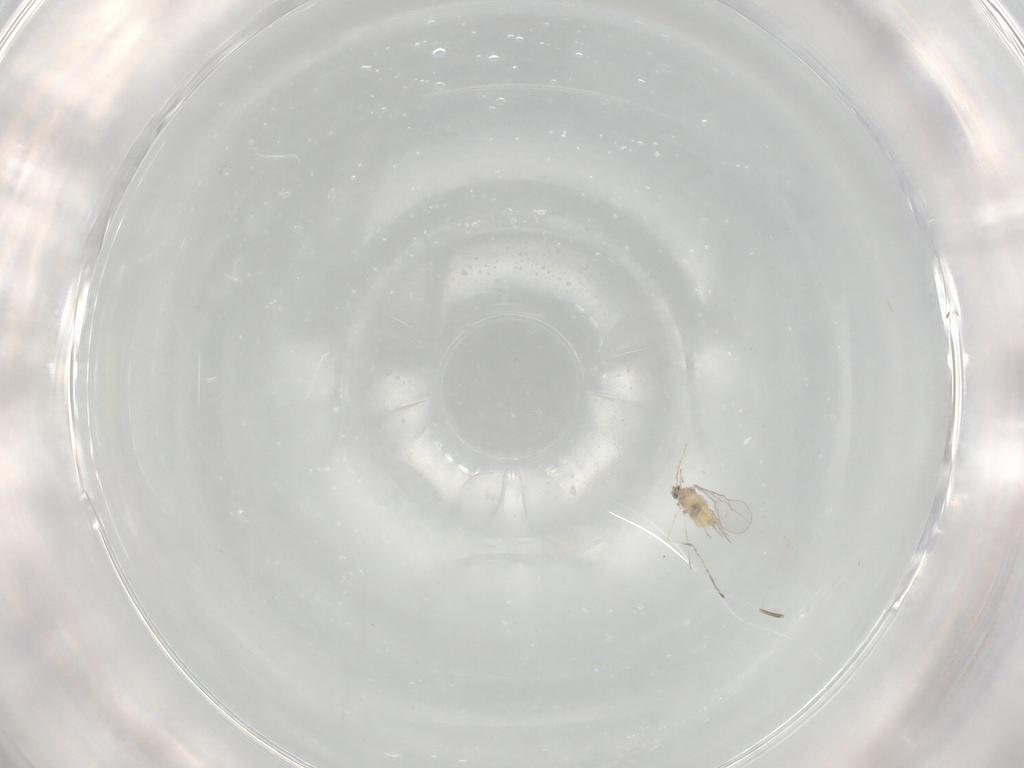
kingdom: Animalia
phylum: Arthropoda
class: Insecta
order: Diptera
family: Cecidomyiidae
